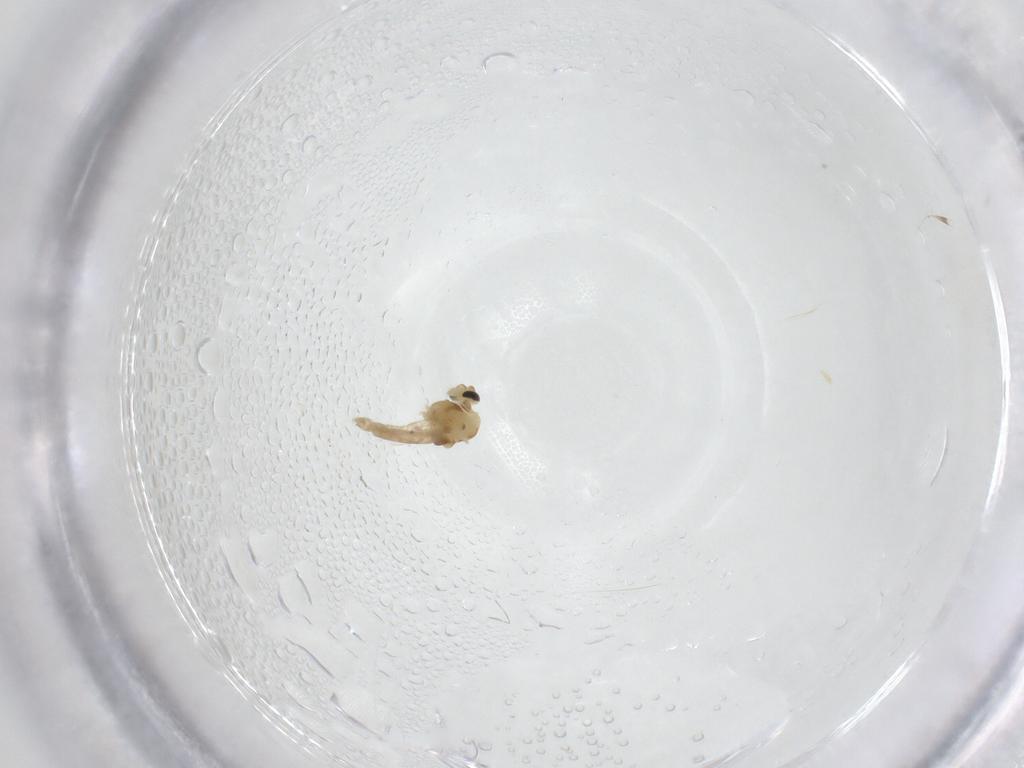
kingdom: Animalia
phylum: Arthropoda
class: Insecta
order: Diptera
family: Chironomidae
